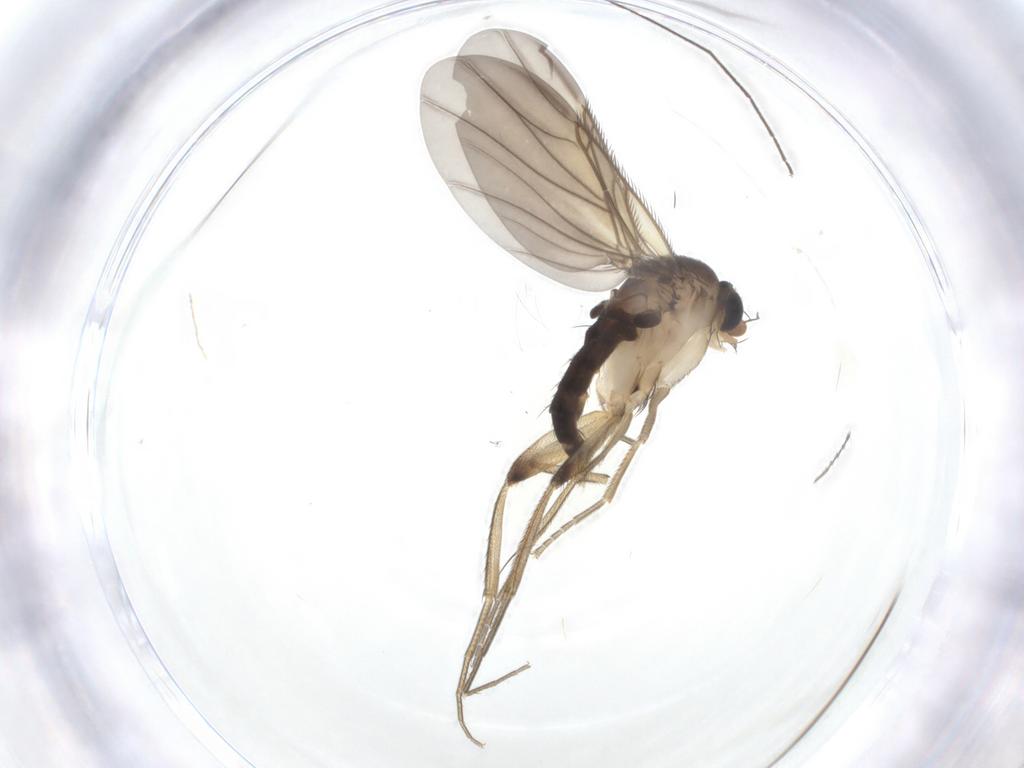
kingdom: Animalia
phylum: Arthropoda
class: Insecta
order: Diptera
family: Phoridae
